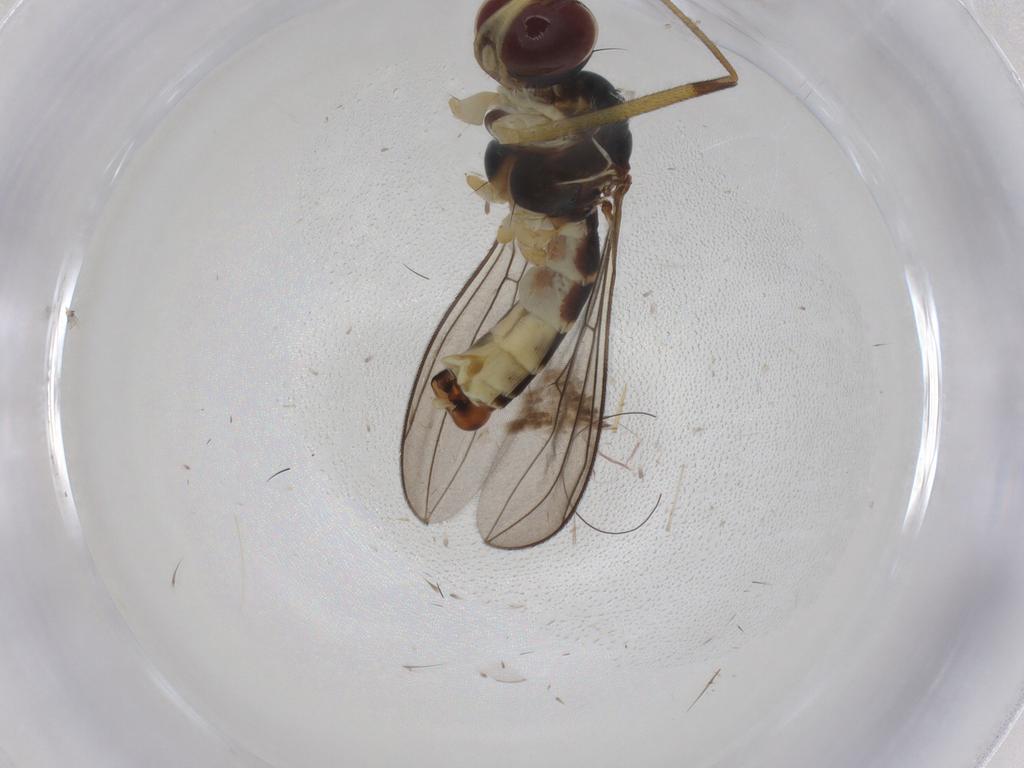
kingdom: Animalia
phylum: Arthropoda
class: Insecta
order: Diptera
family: Micropezidae
